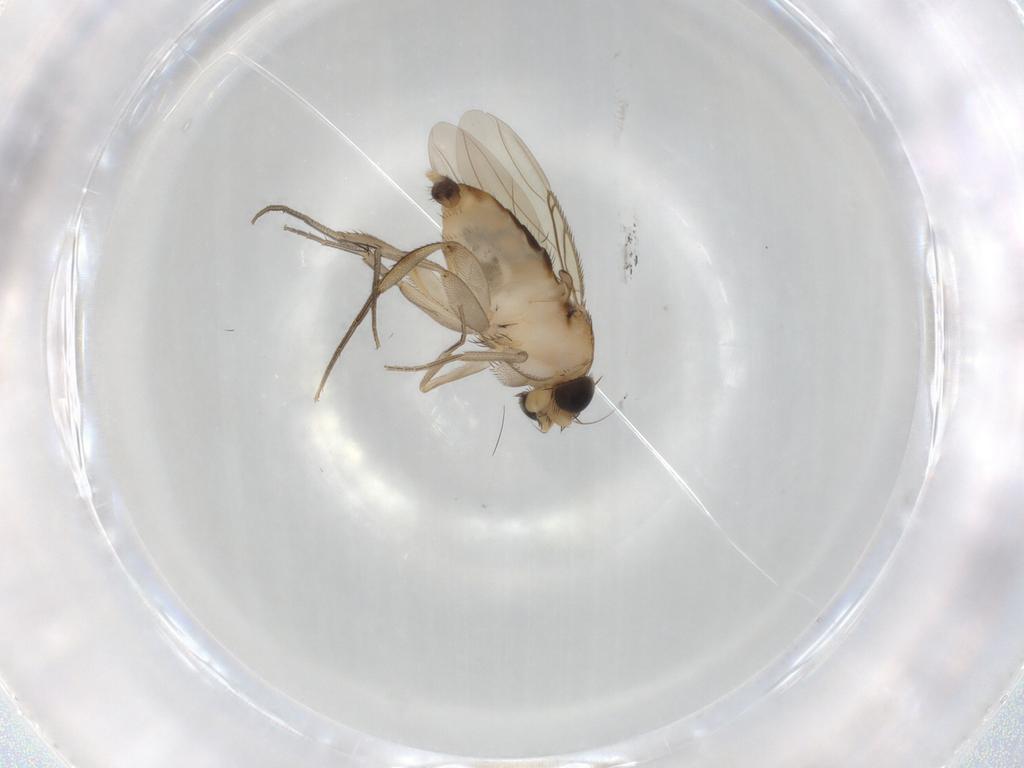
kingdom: Animalia
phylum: Arthropoda
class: Insecta
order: Diptera
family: Phoridae
